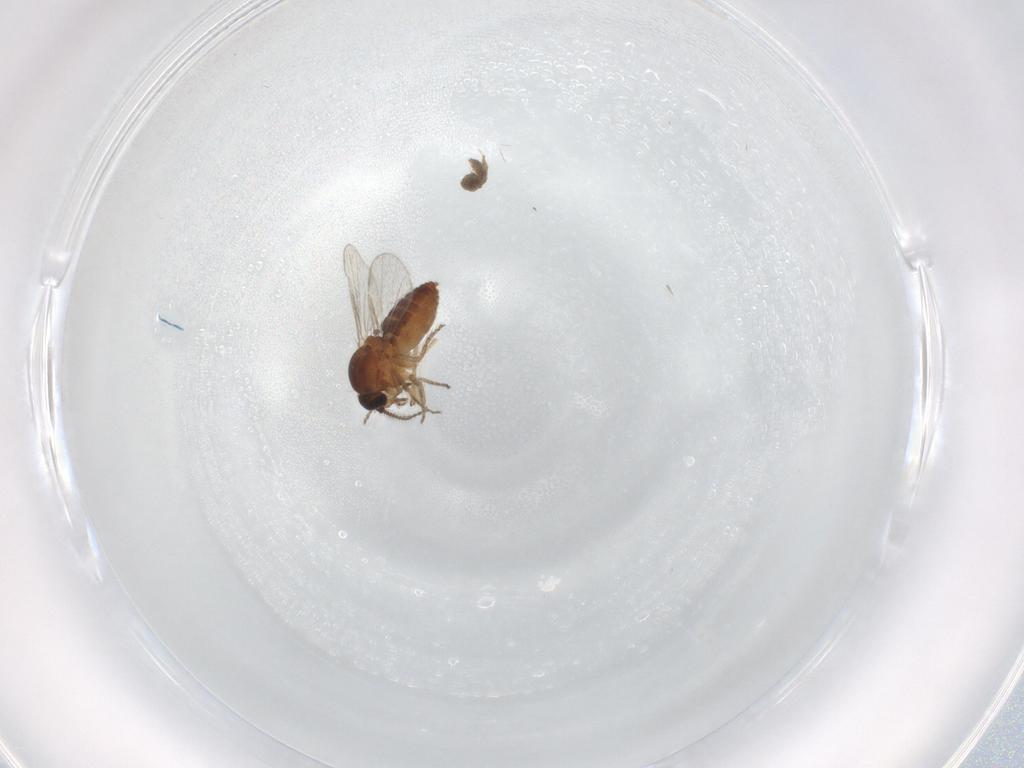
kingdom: Animalia
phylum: Arthropoda
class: Insecta
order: Diptera
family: Ceratopogonidae
